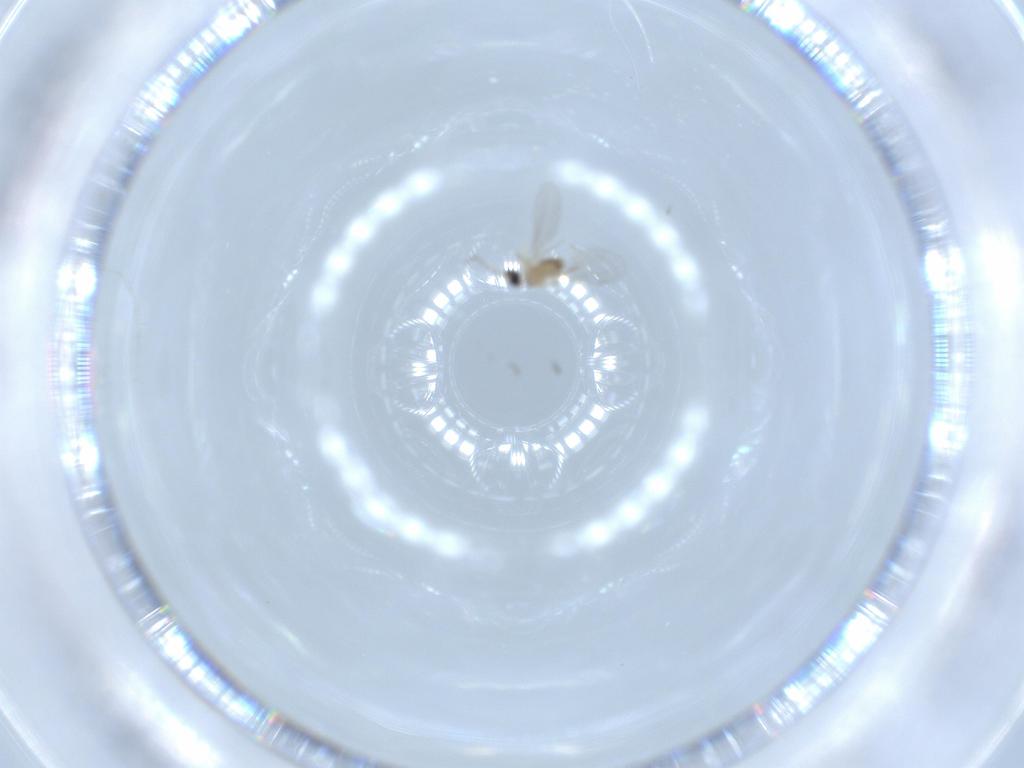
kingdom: Animalia
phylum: Arthropoda
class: Insecta
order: Diptera
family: Cecidomyiidae
